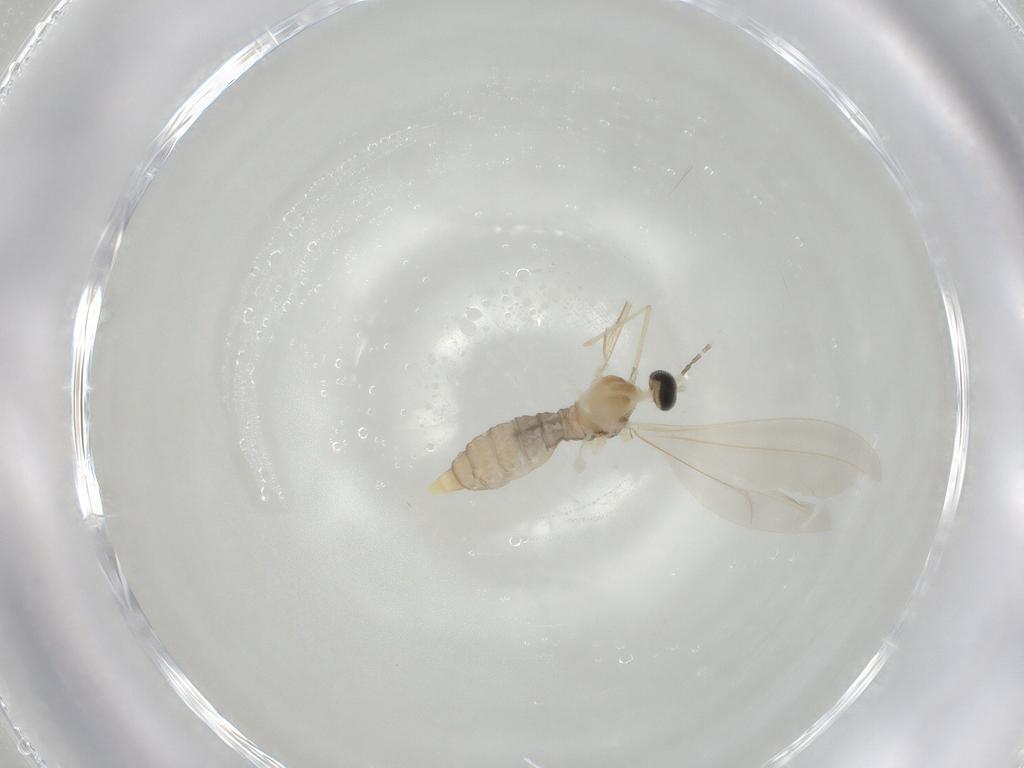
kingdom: Animalia
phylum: Arthropoda
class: Insecta
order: Diptera
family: Cecidomyiidae
